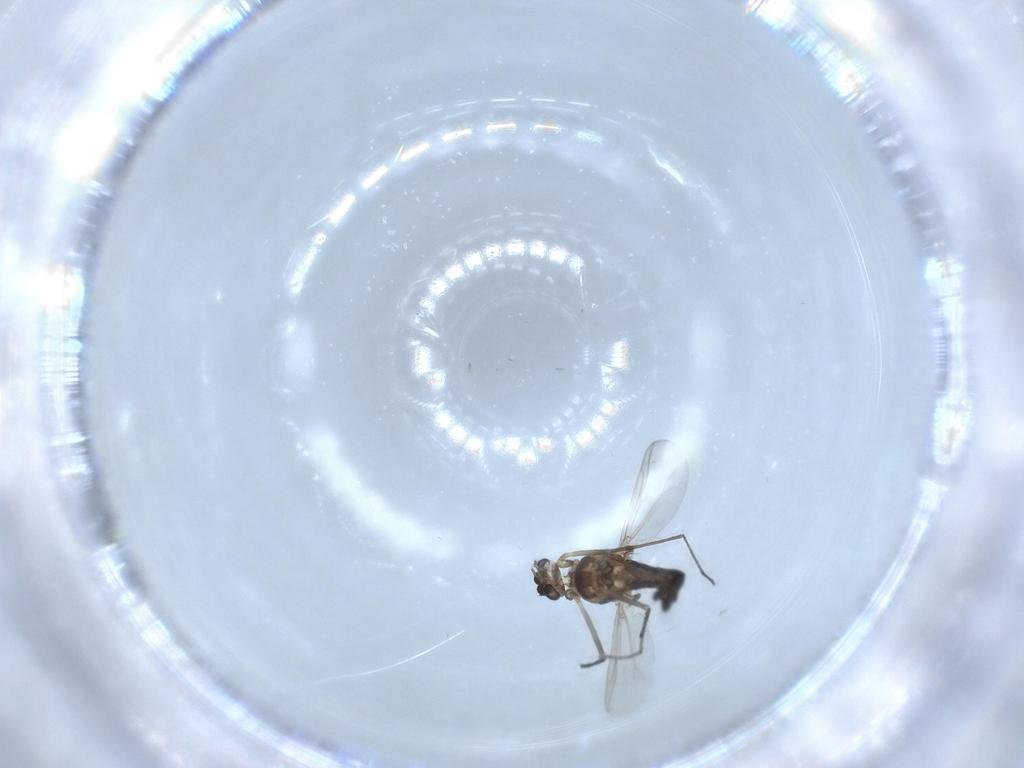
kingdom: Animalia
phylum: Arthropoda
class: Insecta
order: Diptera
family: Chironomidae
